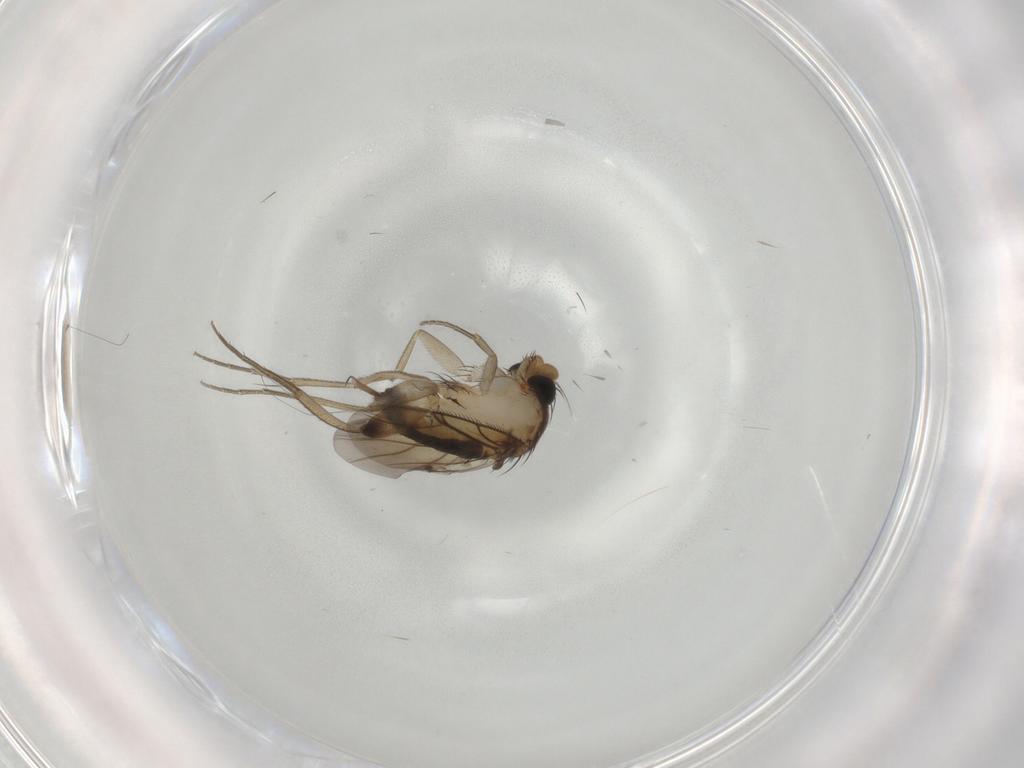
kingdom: Animalia
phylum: Arthropoda
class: Insecta
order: Diptera
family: Phoridae
